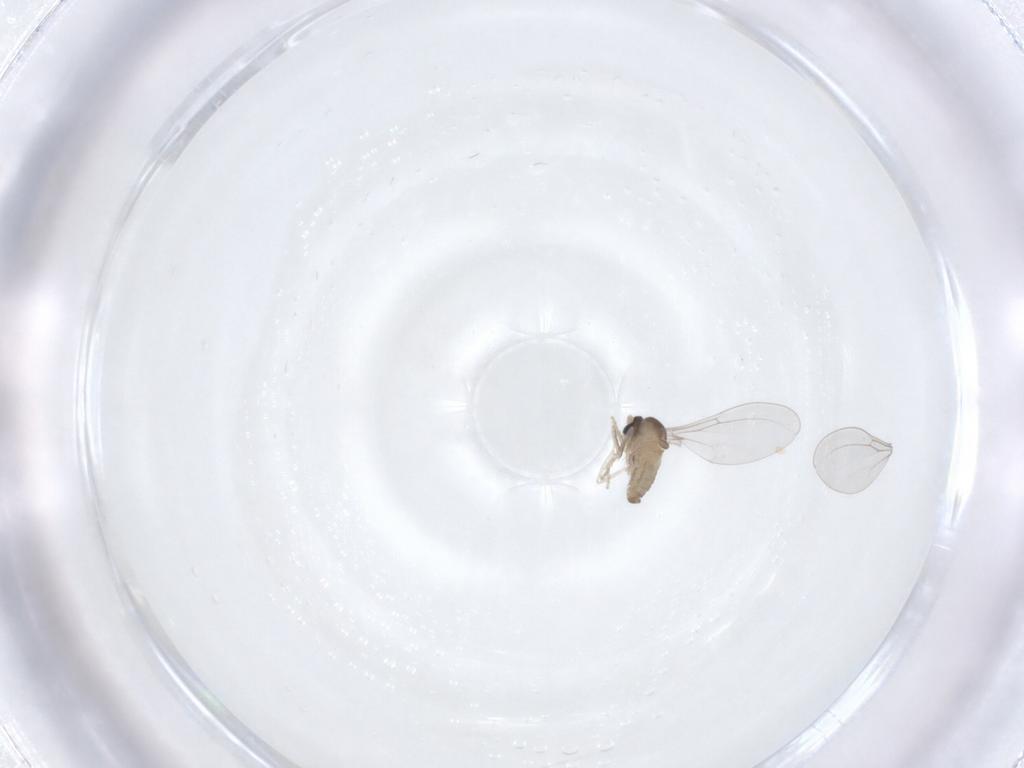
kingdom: Animalia
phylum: Arthropoda
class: Insecta
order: Diptera
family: Cecidomyiidae
